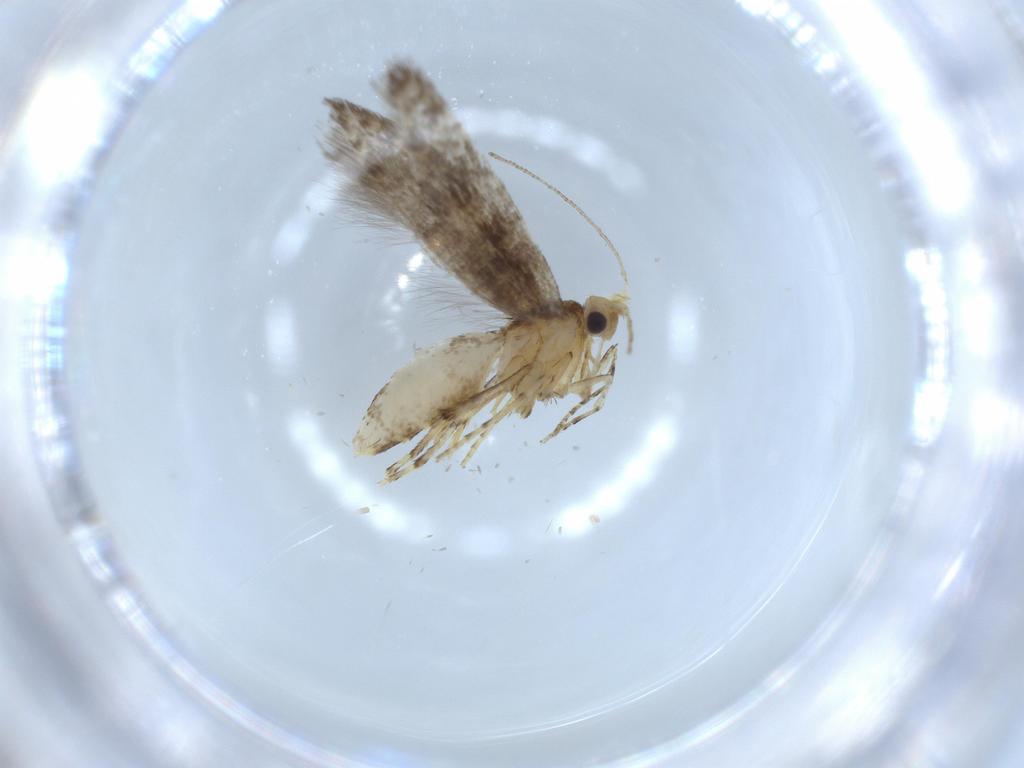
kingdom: Animalia
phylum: Arthropoda
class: Insecta
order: Lepidoptera
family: Argyresthiidae
